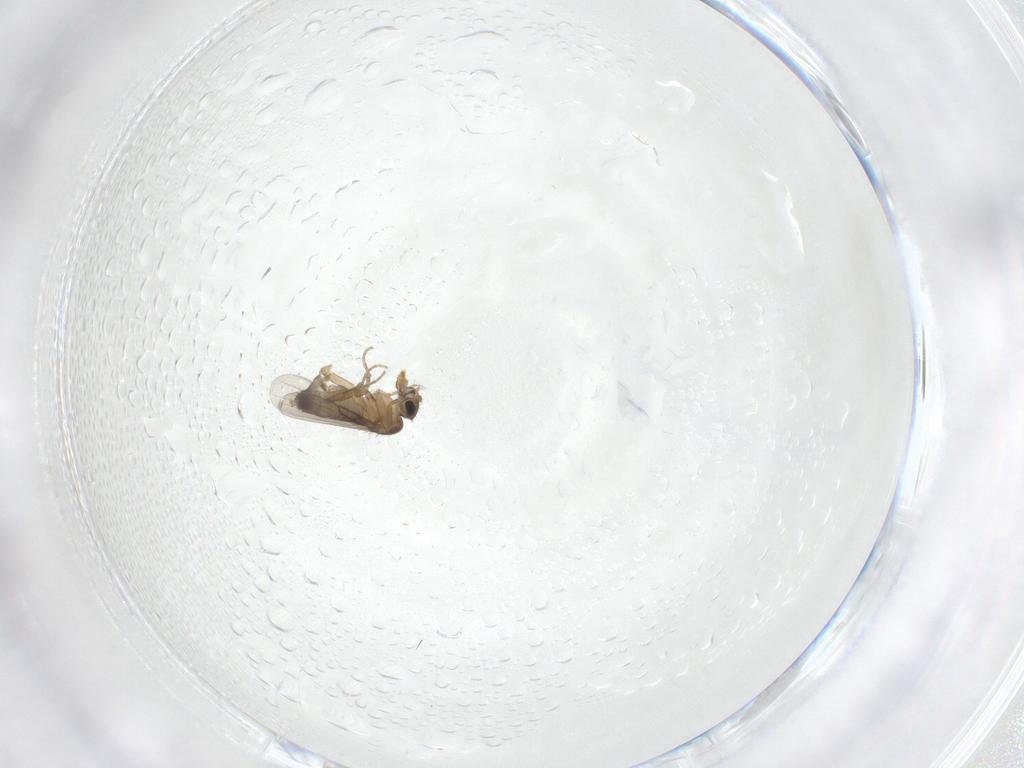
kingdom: Animalia
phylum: Arthropoda
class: Insecta
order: Diptera
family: Phoridae
